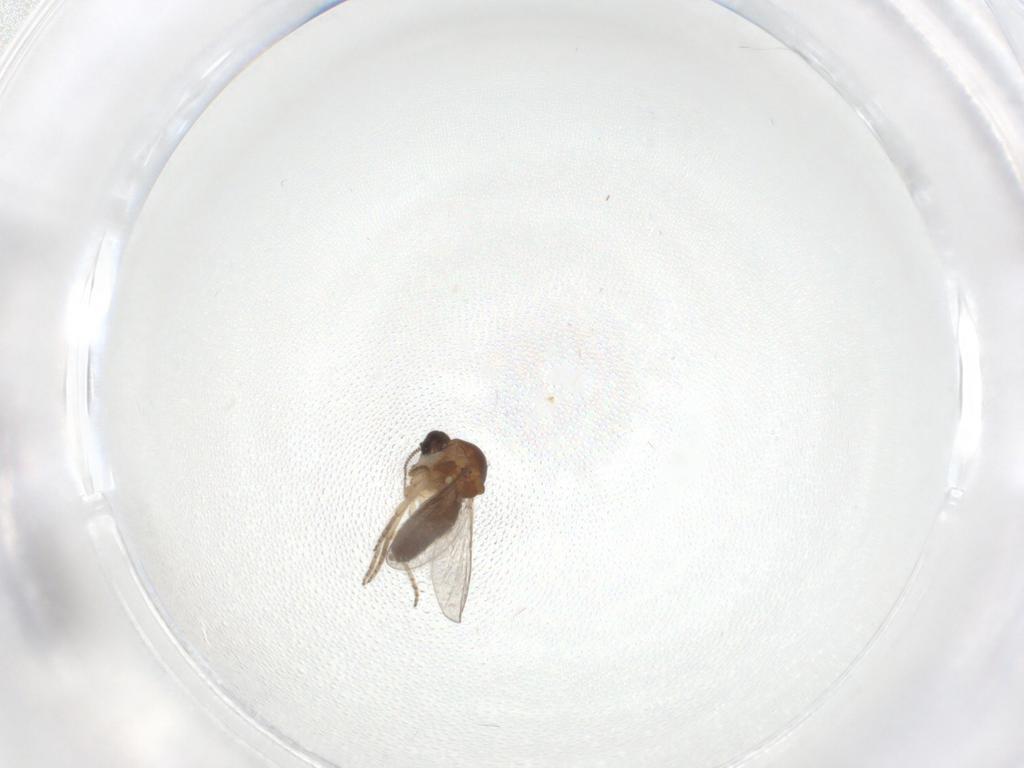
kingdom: Animalia
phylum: Arthropoda
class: Insecta
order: Diptera
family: Ceratopogonidae
